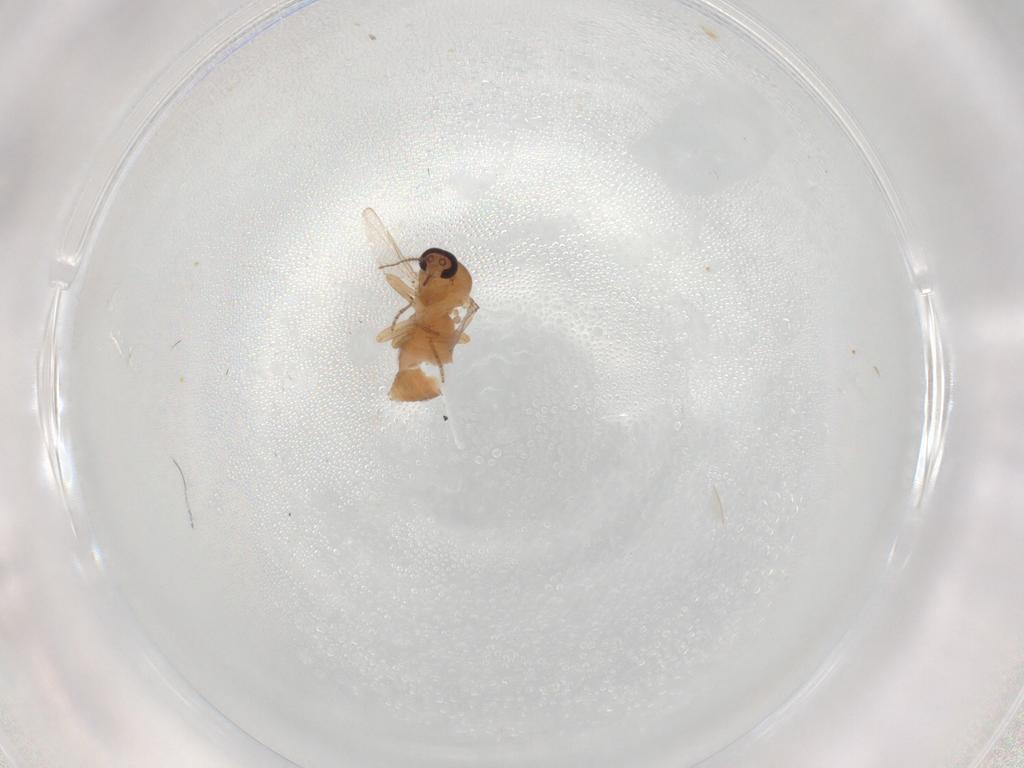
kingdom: Animalia
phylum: Arthropoda
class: Insecta
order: Diptera
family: Ceratopogonidae
